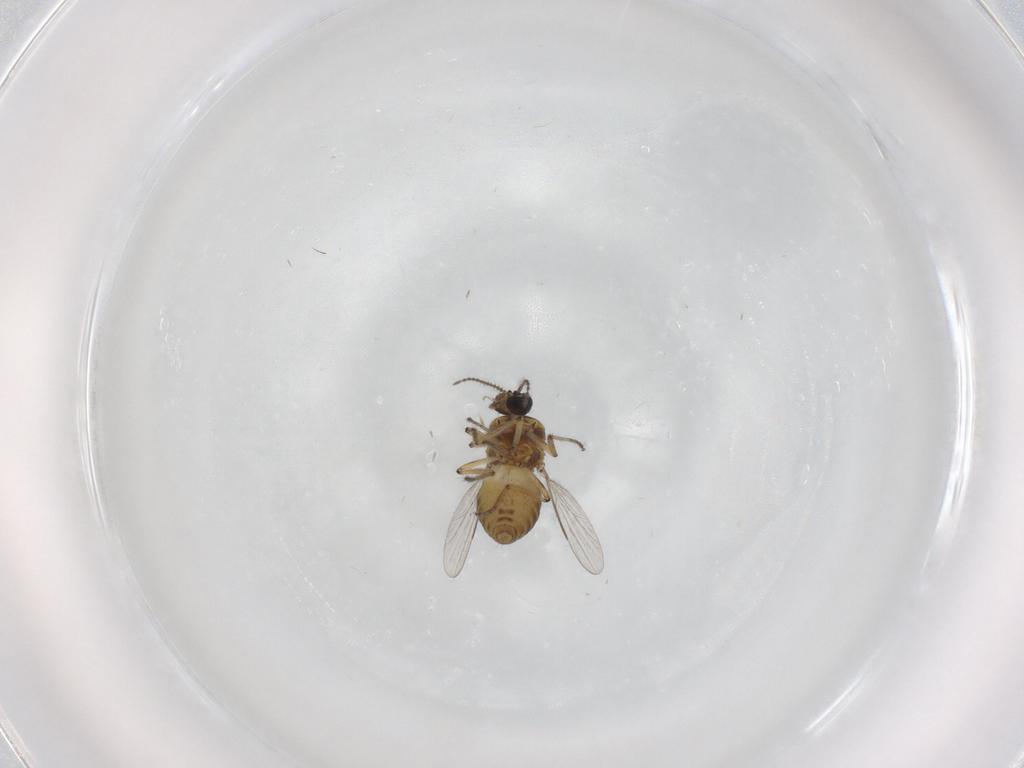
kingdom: Animalia
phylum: Arthropoda
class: Insecta
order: Diptera
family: Ceratopogonidae
